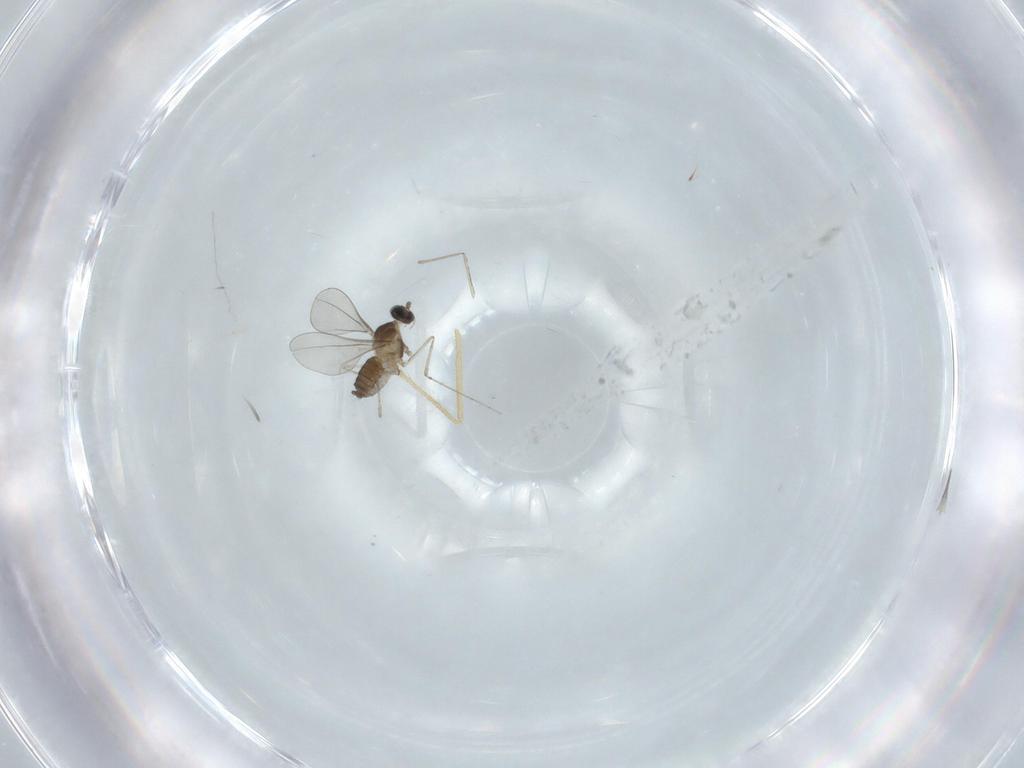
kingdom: Animalia
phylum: Arthropoda
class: Insecta
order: Diptera
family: Chironomidae
